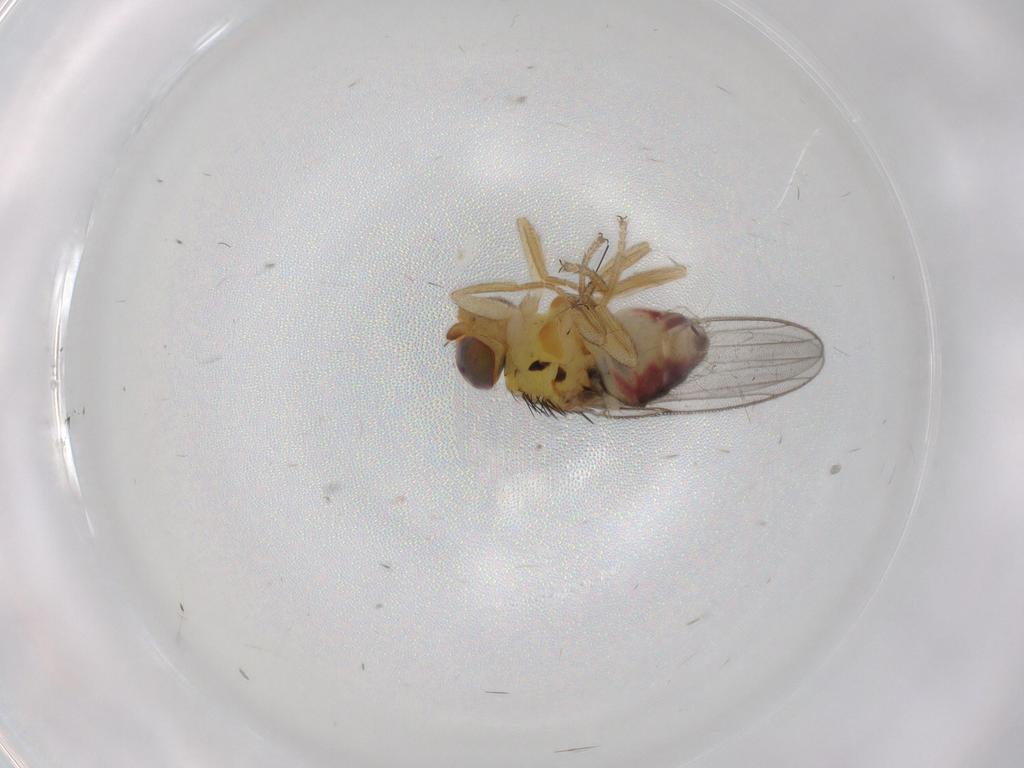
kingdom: Animalia
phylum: Arthropoda
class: Insecta
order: Diptera
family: Chloropidae
